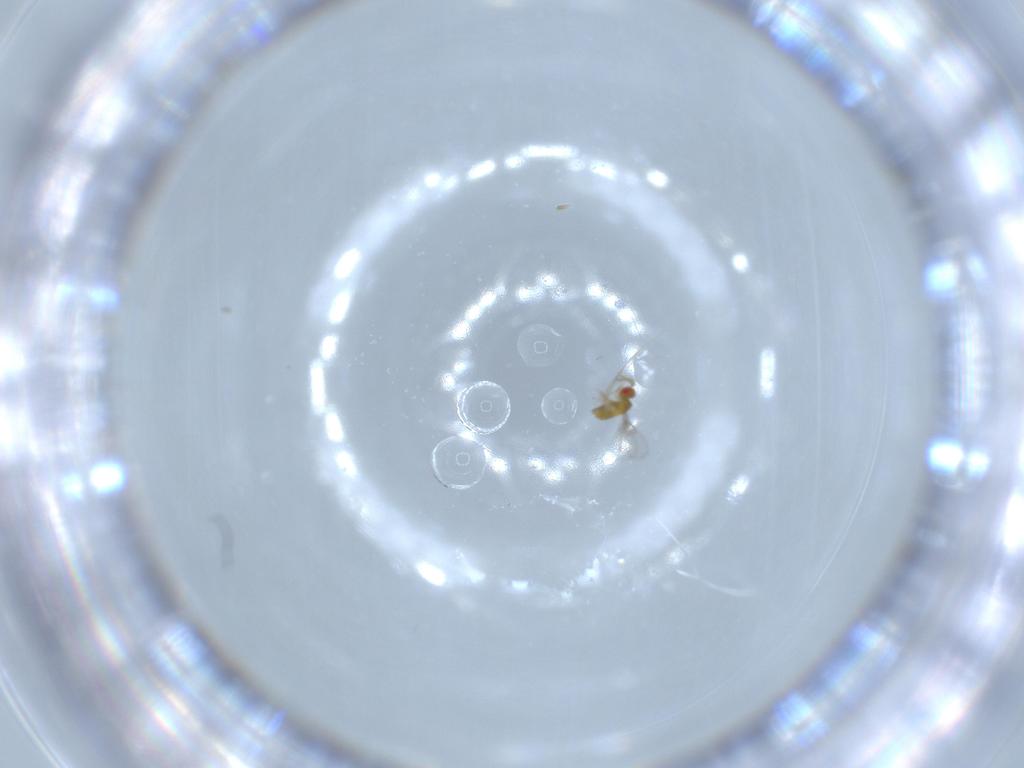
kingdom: Animalia
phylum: Arthropoda
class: Insecta
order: Hymenoptera
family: Trichogrammatidae
